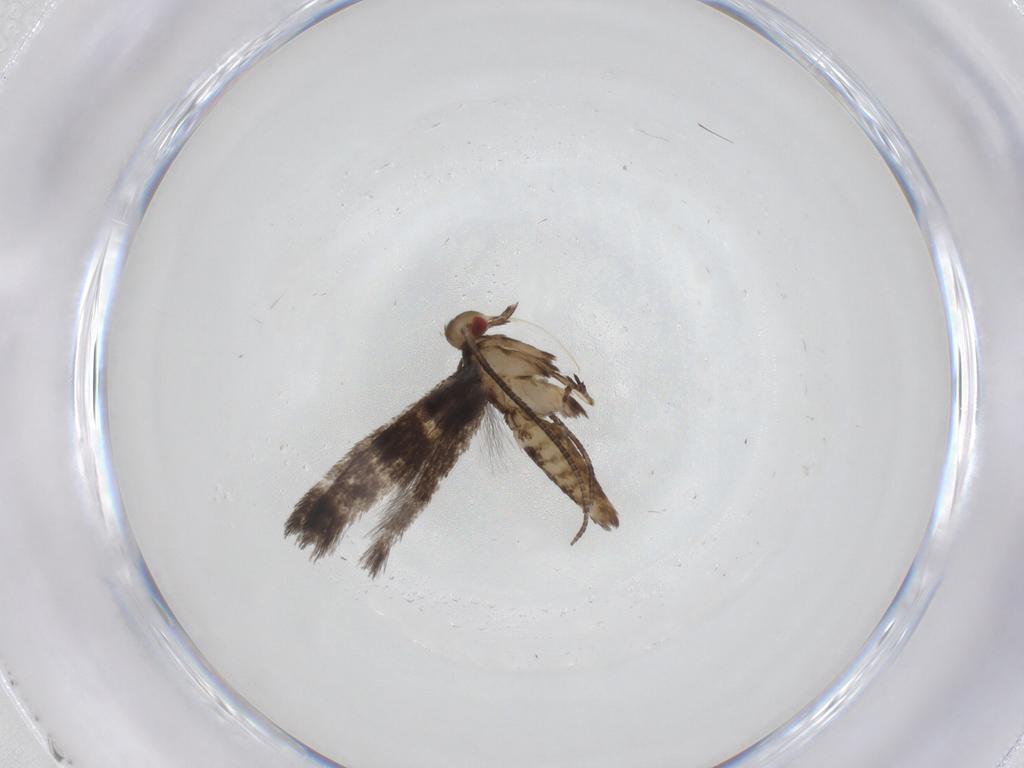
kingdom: Animalia
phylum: Arthropoda
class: Insecta
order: Lepidoptera
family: Gracillariidae
